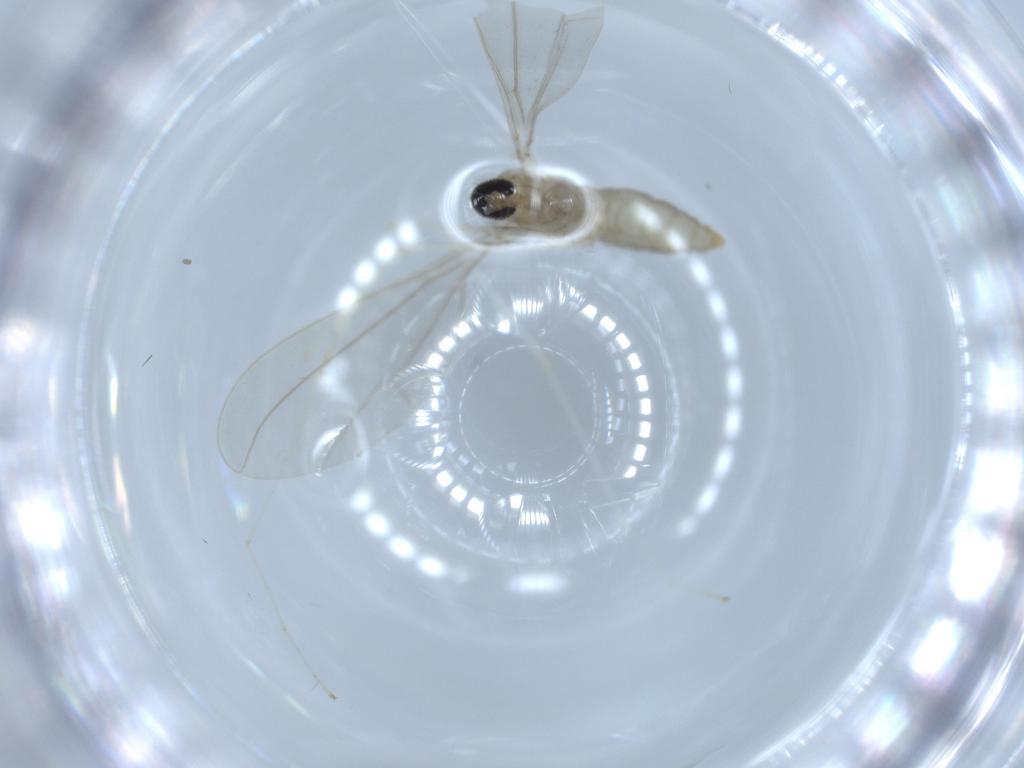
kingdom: Animalia
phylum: Arthropoda
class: Insecta
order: Diptera
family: Cecidomyiidae
